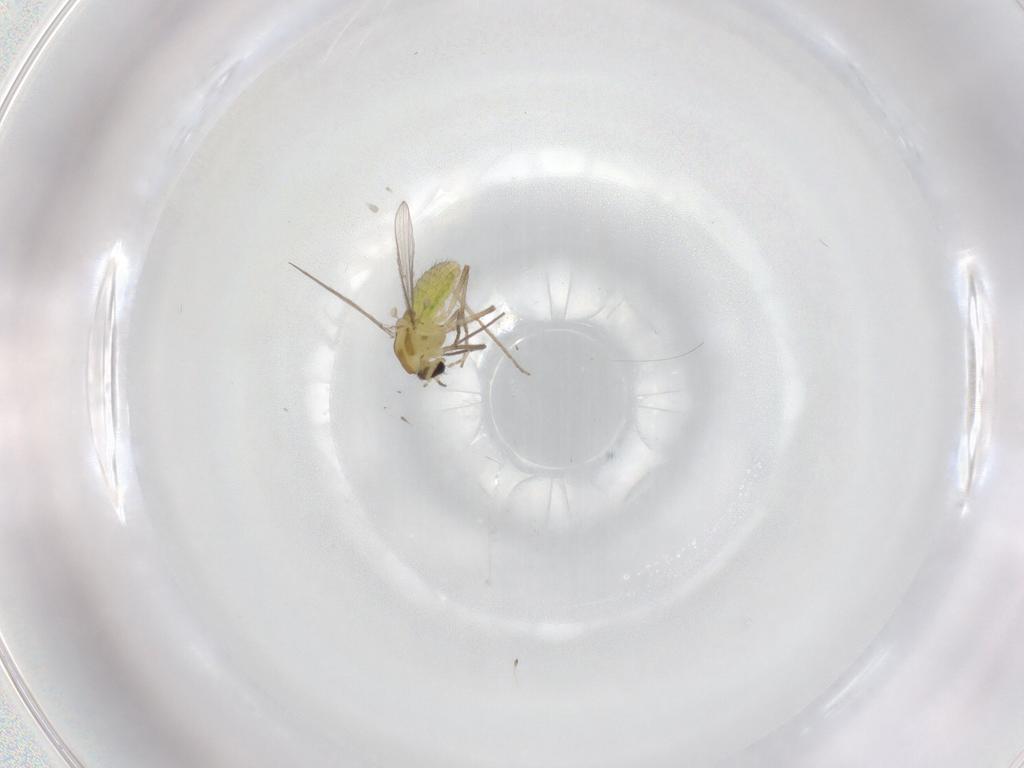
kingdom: Animalia
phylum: Arthropoda
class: Insecta
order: Diptera
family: Chironomidae
